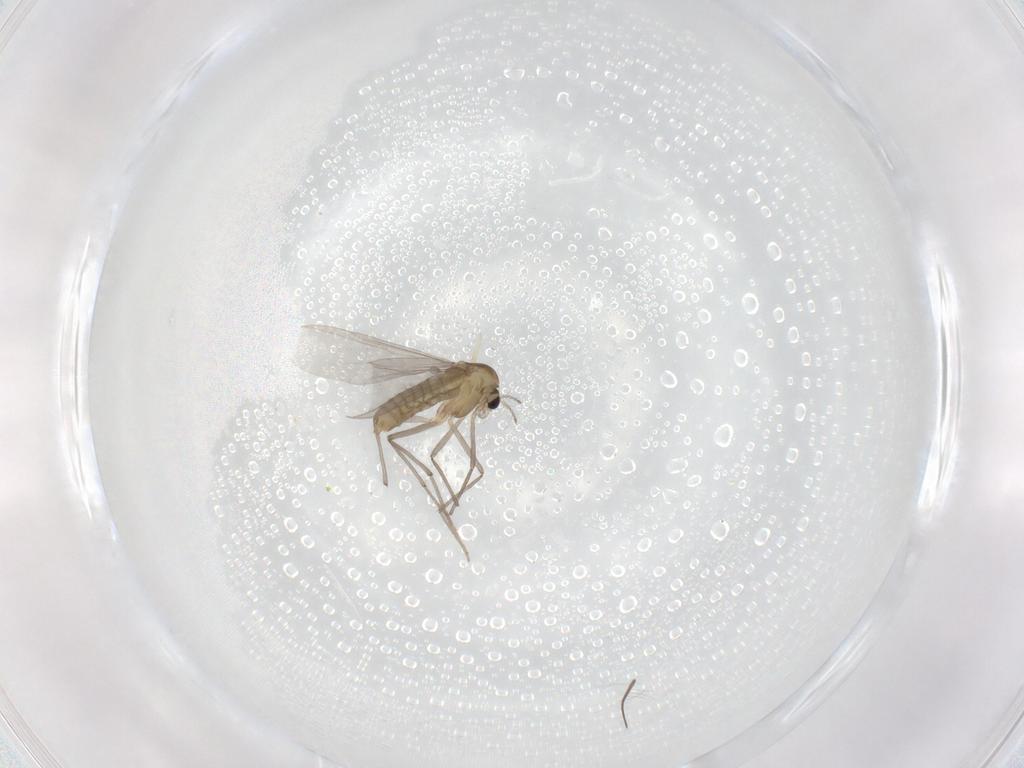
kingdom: Animalia
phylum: Arthropoda
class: Insecta
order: Diptera
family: Chironomidae
